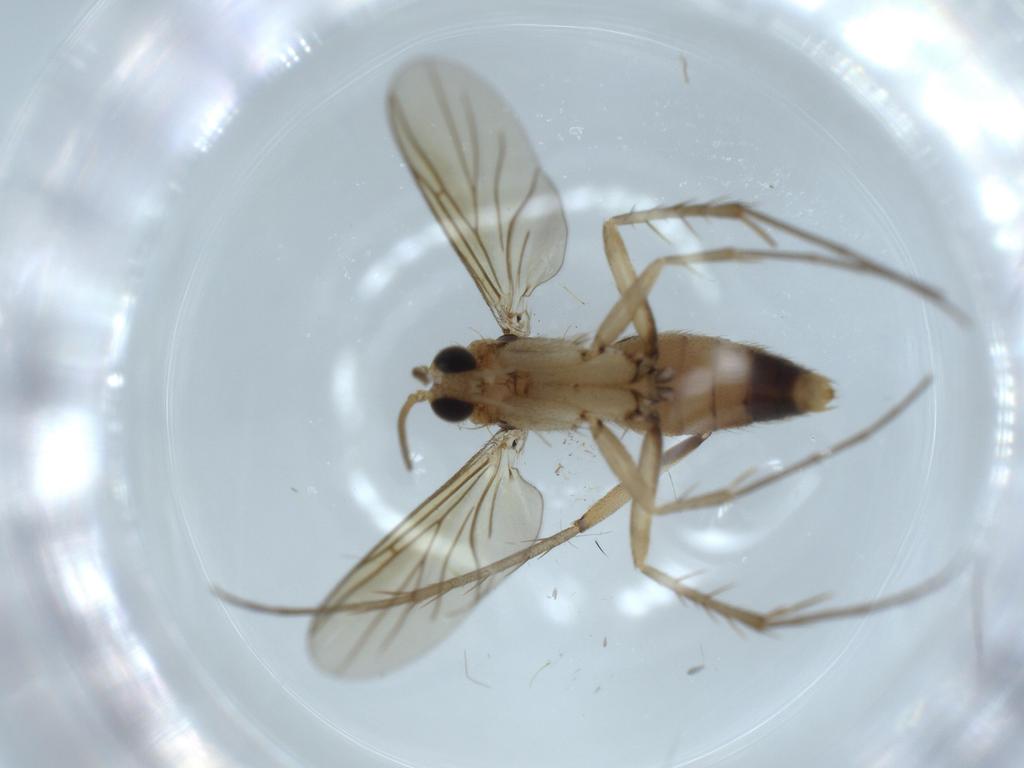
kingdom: Animalia
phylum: Arthropoda
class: Insecta
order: Diptera
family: Mycetophilidae
